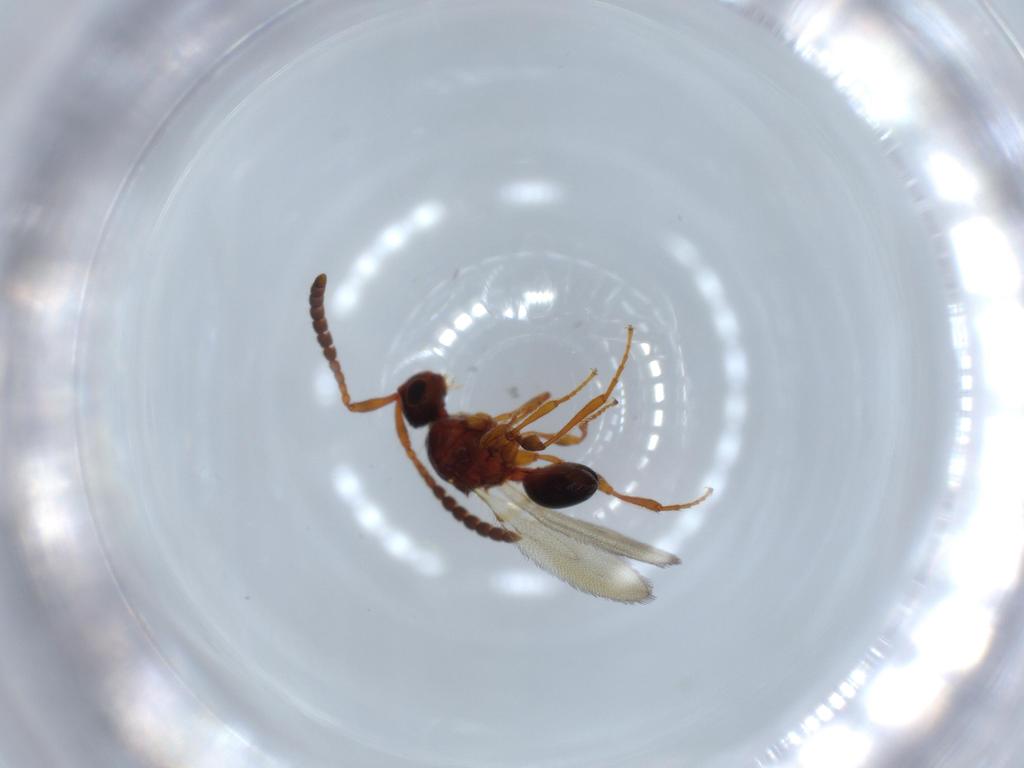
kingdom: Animalia
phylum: Arthropoda
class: Insecta
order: Hymenoptera
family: Diapriidae
